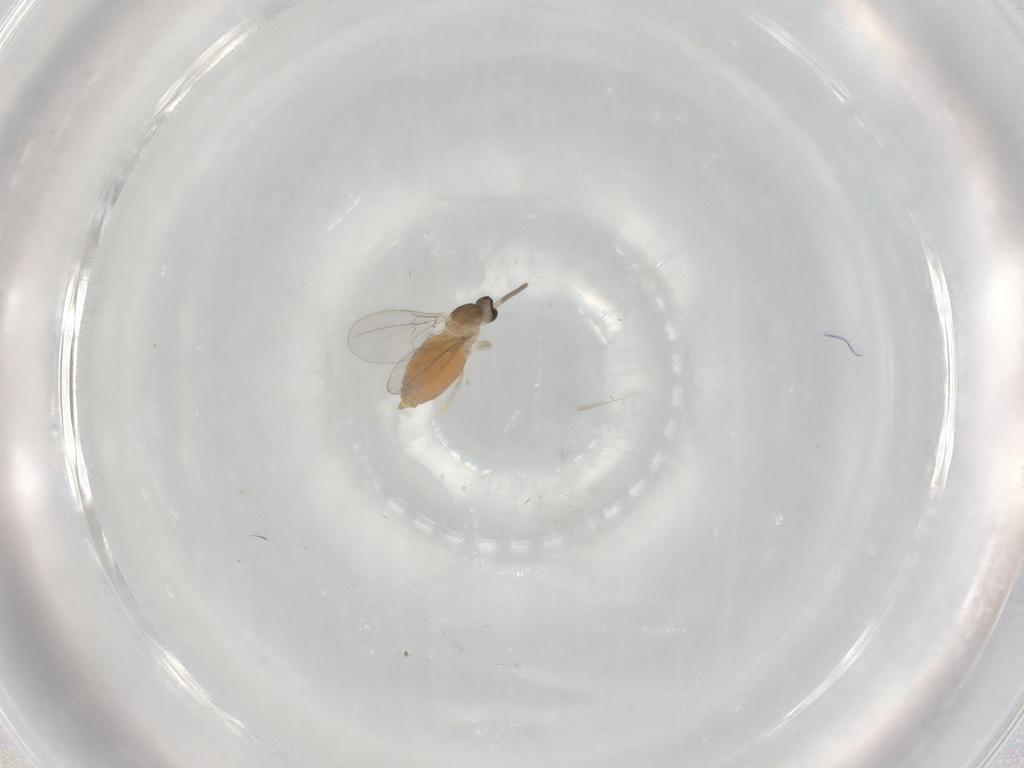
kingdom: Animalia
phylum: Arthropoda
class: Insecta
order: Diptera
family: Cecidomyiidae
